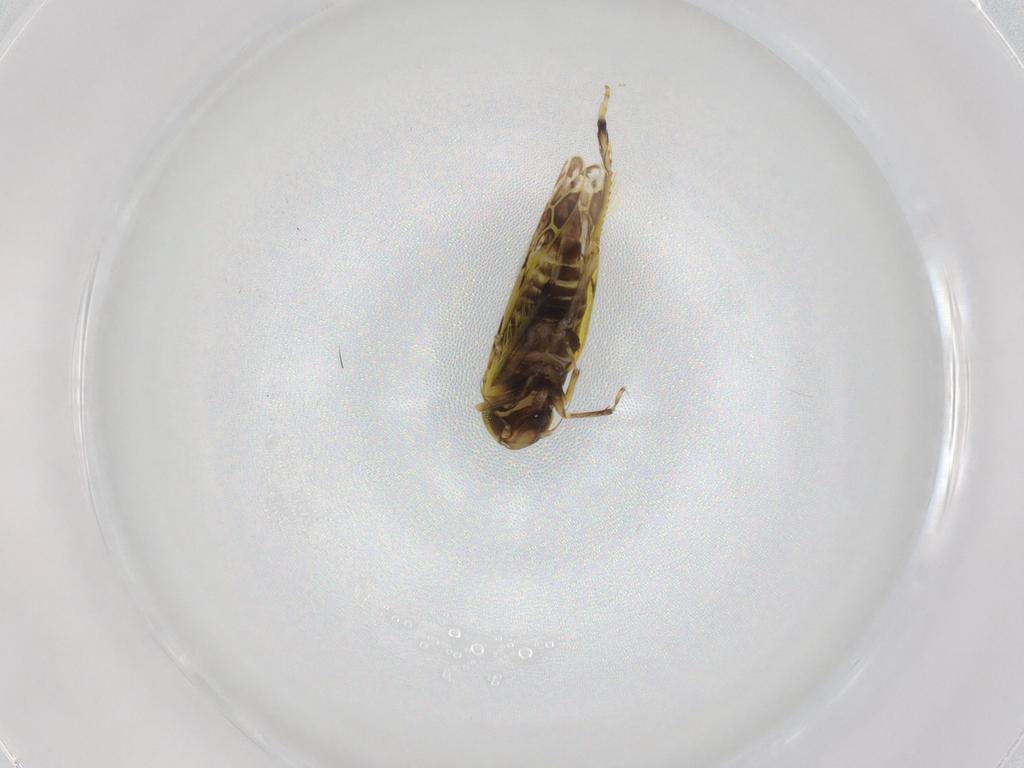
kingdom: Animalia
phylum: Arthropoda
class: Insecta
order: Hemiptera
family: Cicadellidae
